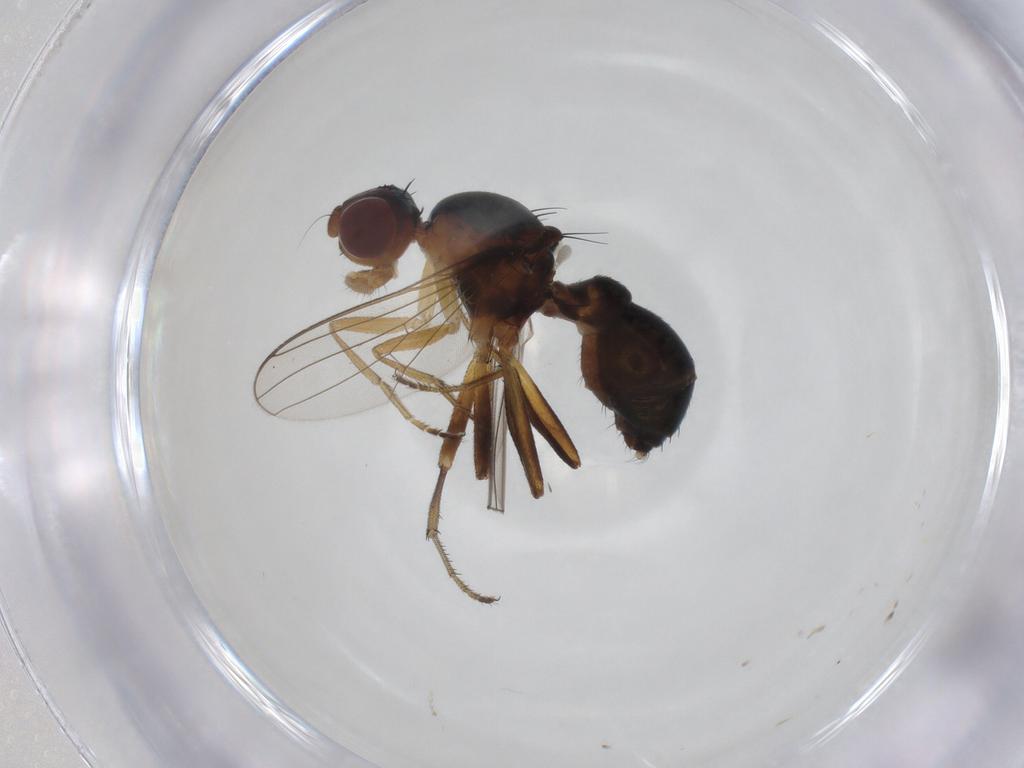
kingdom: Animalia
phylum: Arthropoda
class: Insecta
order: Diptera
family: Sepsidae
